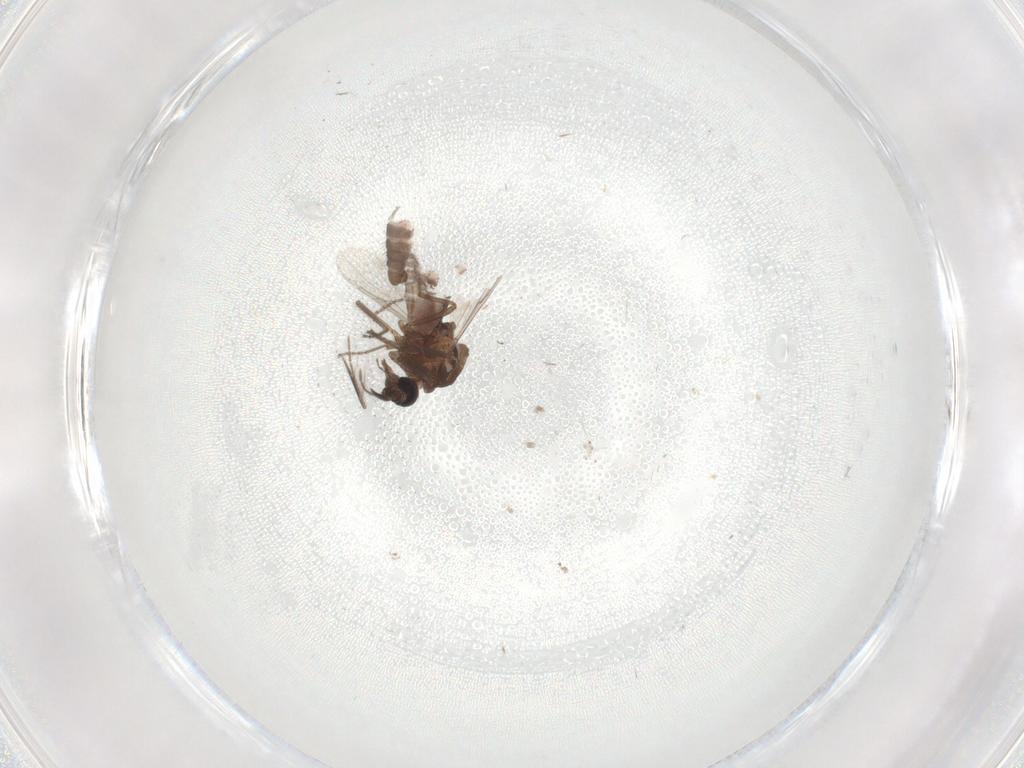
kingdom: Animalia
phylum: Arthropoda
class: Insecta
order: Diptera
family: Ceratopogonidae
